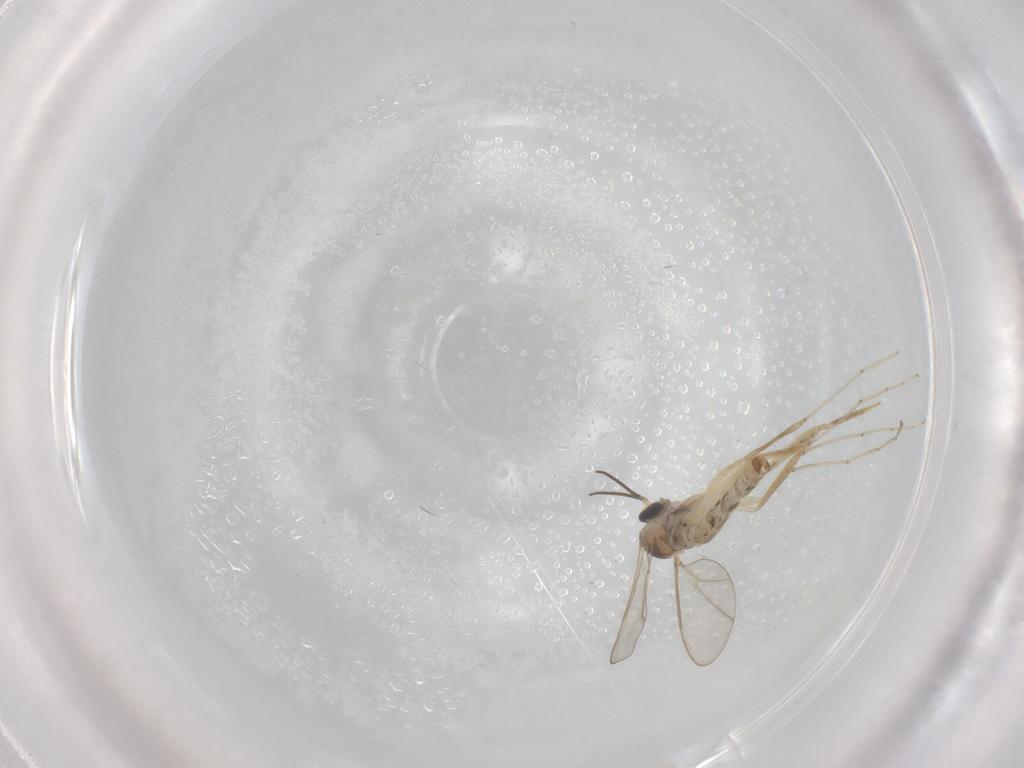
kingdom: Animalia
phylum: Arthropoda
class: Insecta
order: Diptera
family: Cecidomyiidae
